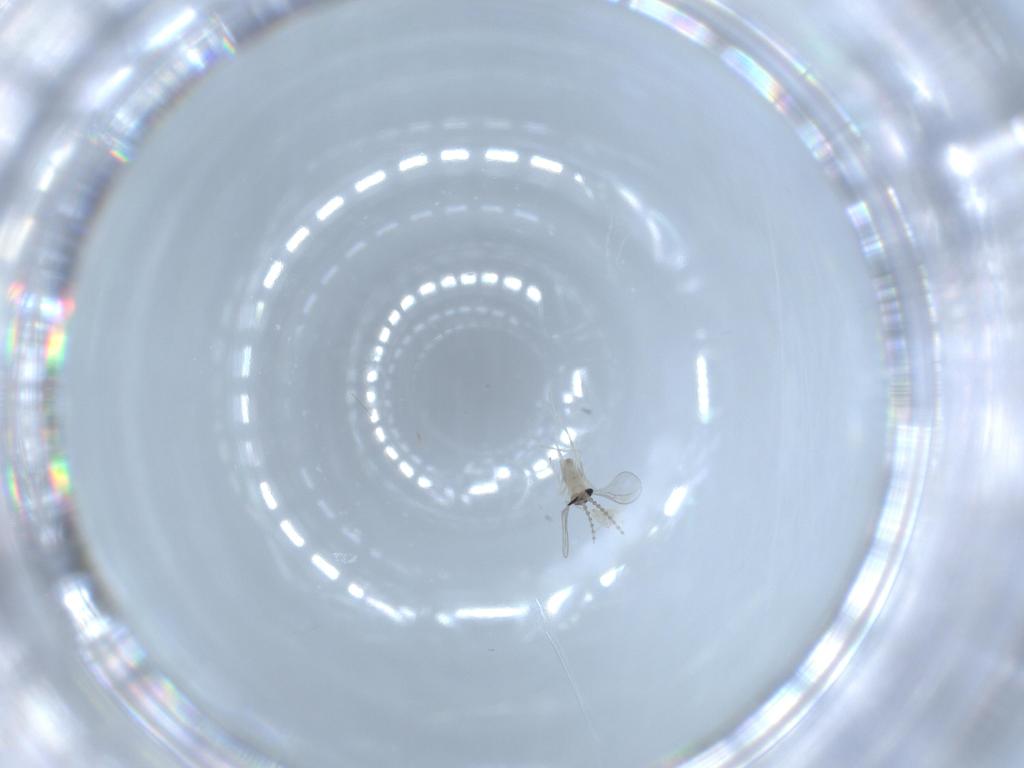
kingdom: Animalia
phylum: Arthropoda
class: Insecta
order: Diptera
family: Cecidomyiidae
